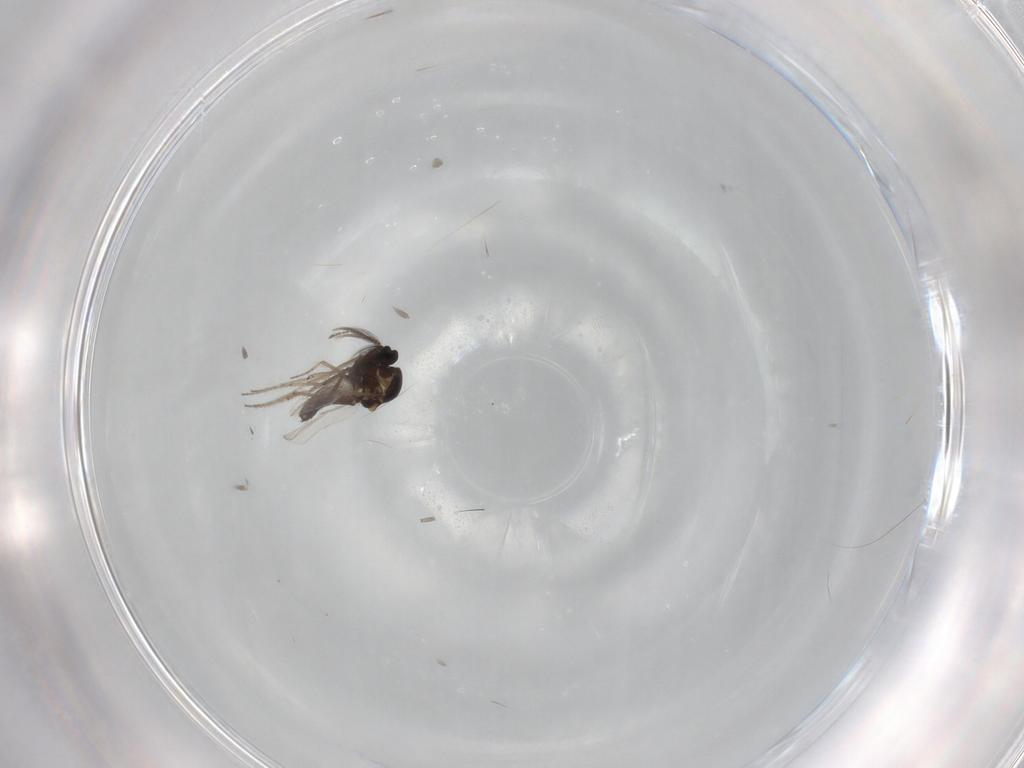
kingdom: Animalia
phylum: Arthropoda
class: Insecta
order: Diptera
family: Ceratopogonidae
